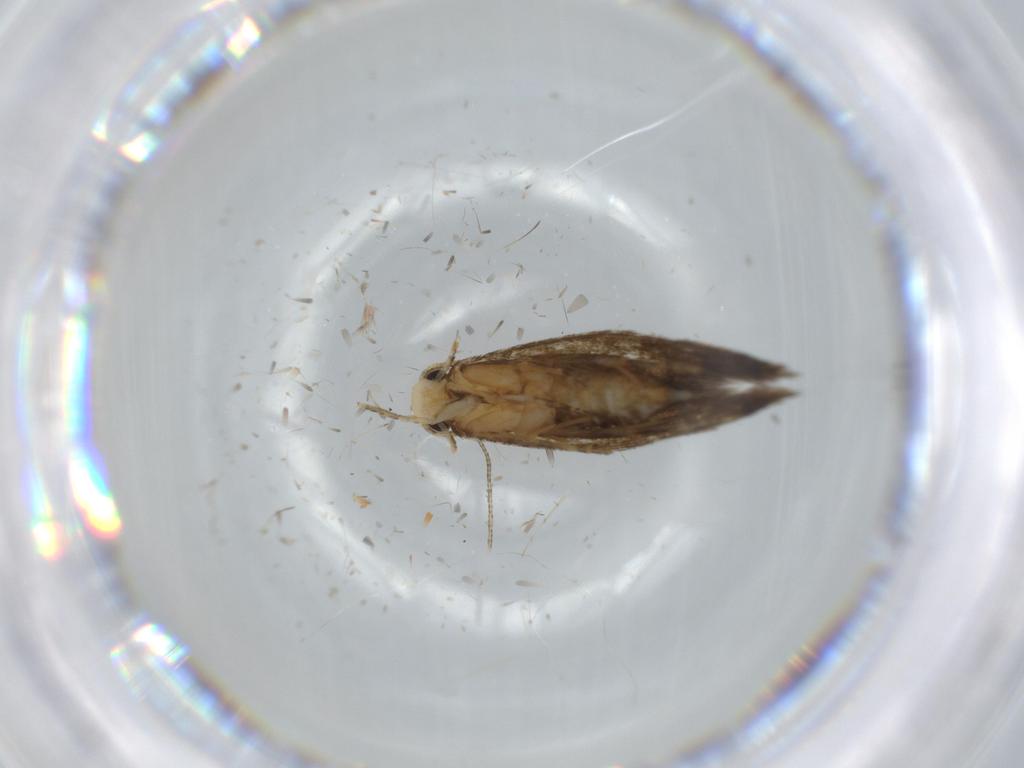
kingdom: Animalia
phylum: Arthropoda
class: Insecta
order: Lepidoptera
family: Tineidae
